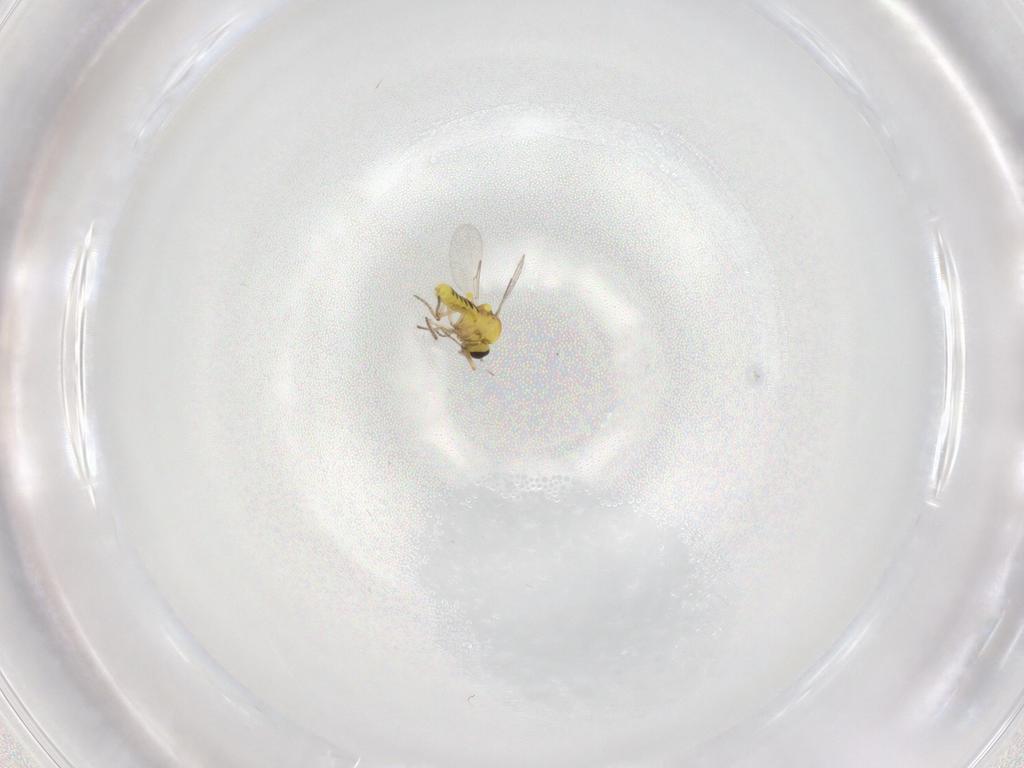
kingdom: Animalia
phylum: Arthropoda
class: Insecta
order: Diptera
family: Ceratopogonidae
